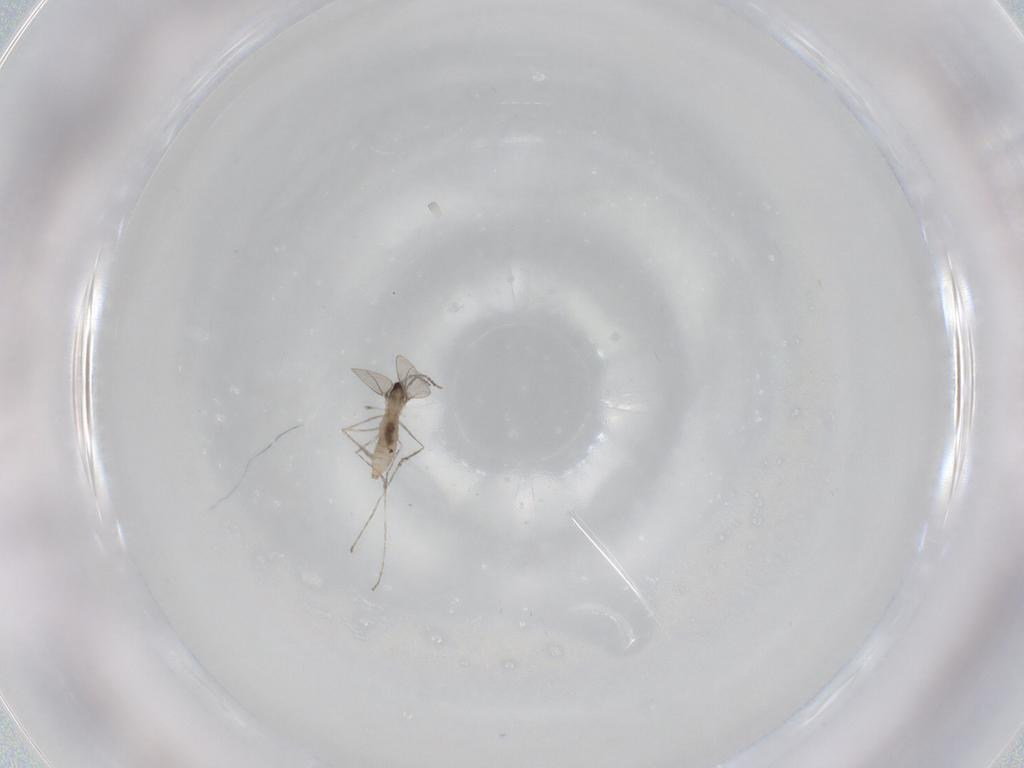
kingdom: Animalia
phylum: Arthropoda
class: Insecta
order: Diptera
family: Cecidomyiidae
